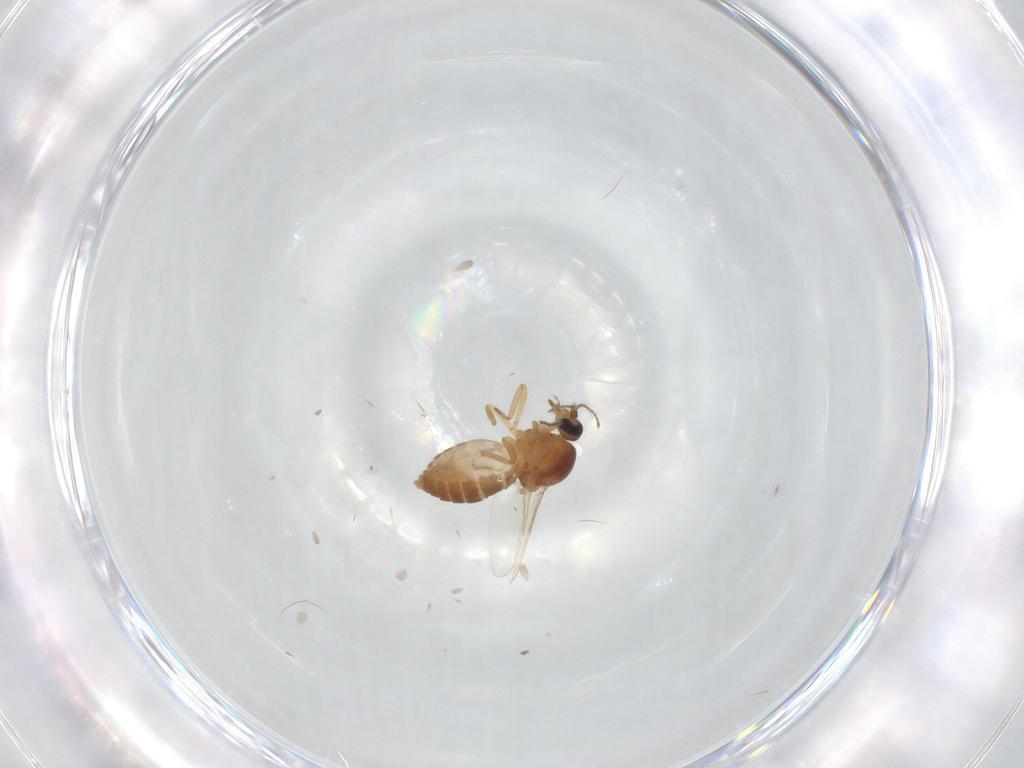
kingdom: Animalia
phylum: Arthropoda
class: Insecta
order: Diptera
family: Ceratopogonidae
